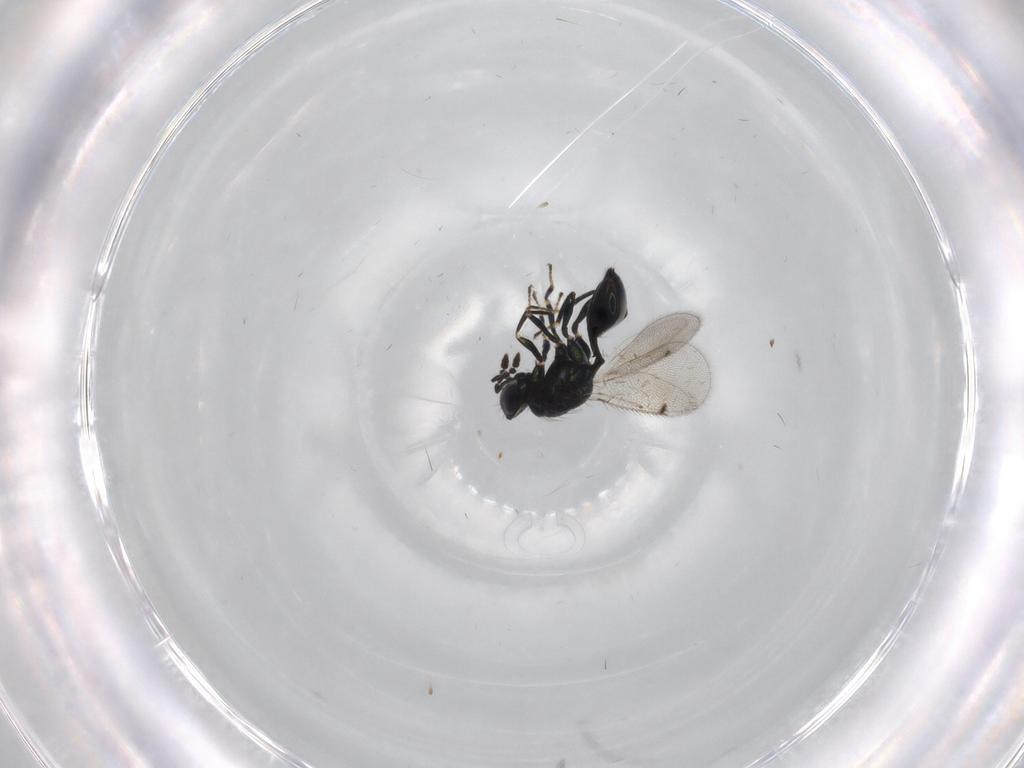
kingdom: Animalia
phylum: Arthropoda
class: Insecta
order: Hymenoptera
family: Eulophidae
